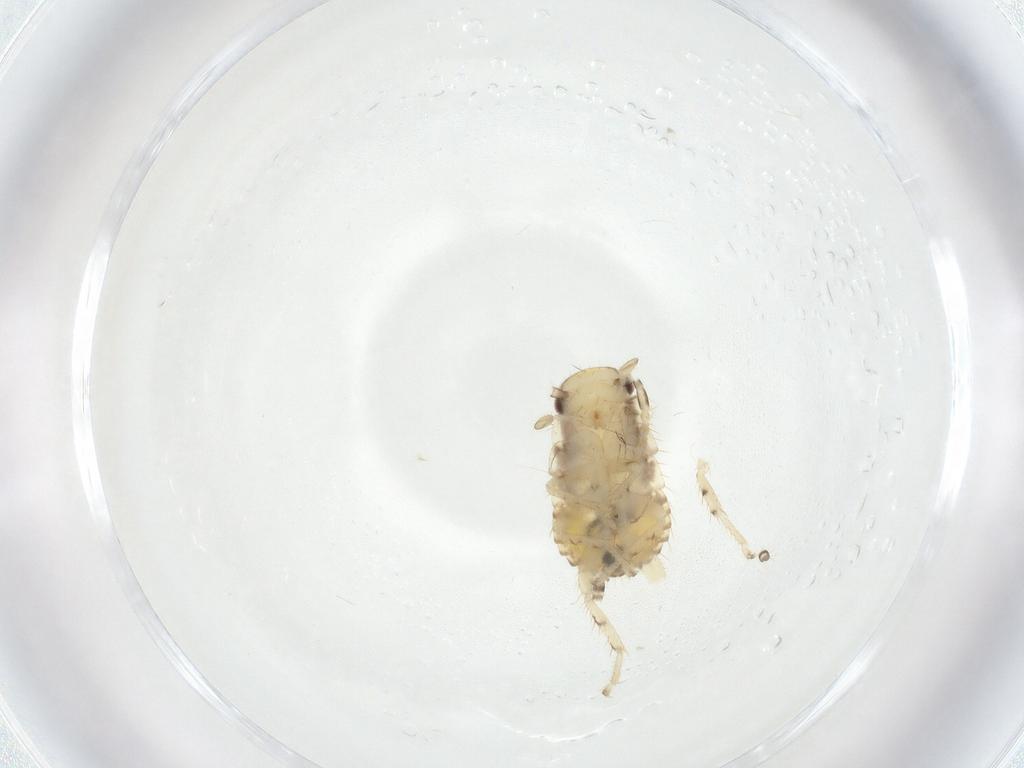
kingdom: Animalia
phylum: Arthropoda
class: Insecta
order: Blattodea
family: Ectobiidae
